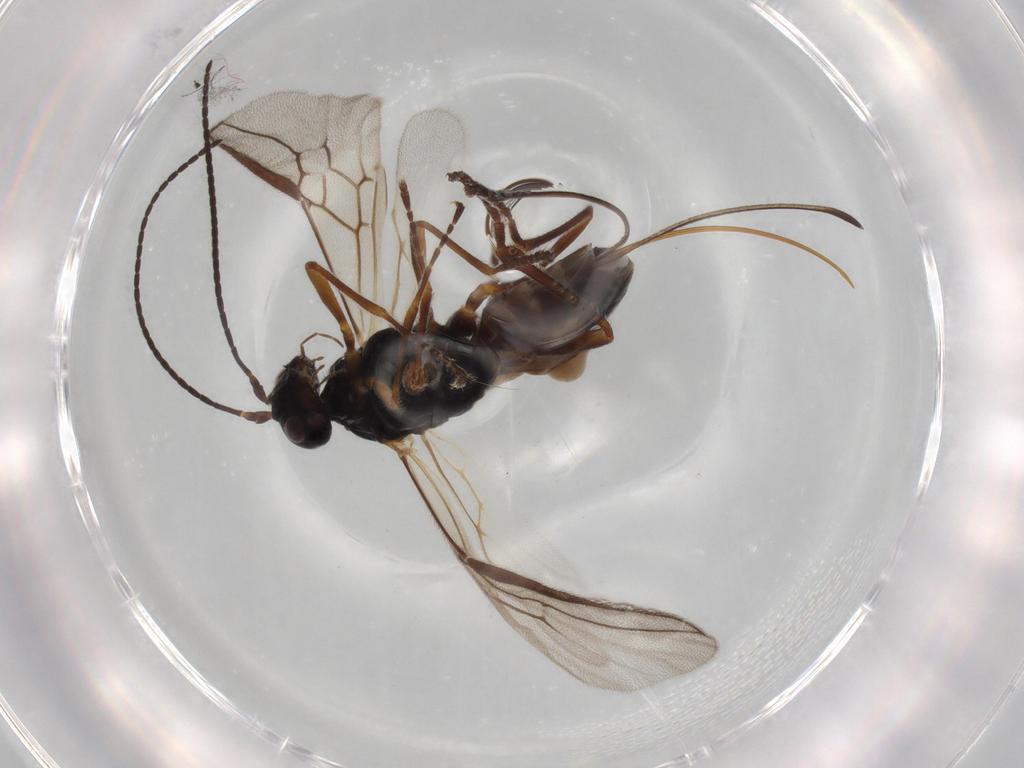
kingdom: Animalia
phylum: Arthropoda
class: Insecta
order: Hymenoptera
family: Braconidae
